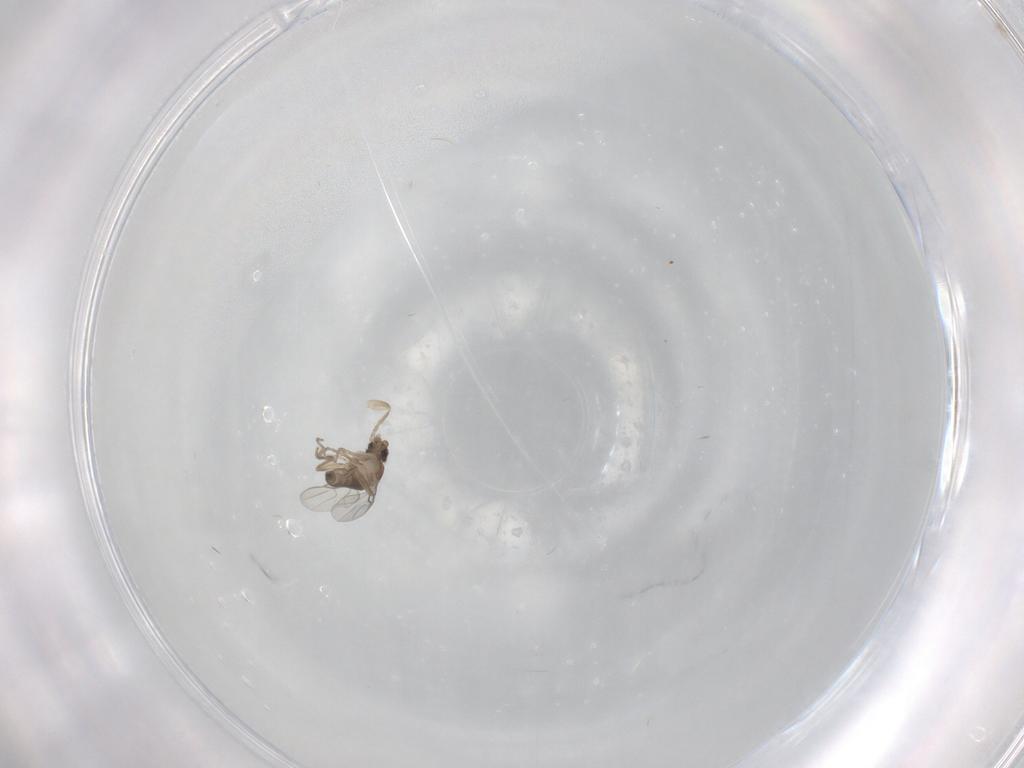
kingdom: Animalia
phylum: Arthropoda
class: Insecta
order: Diptera
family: Phoridae
